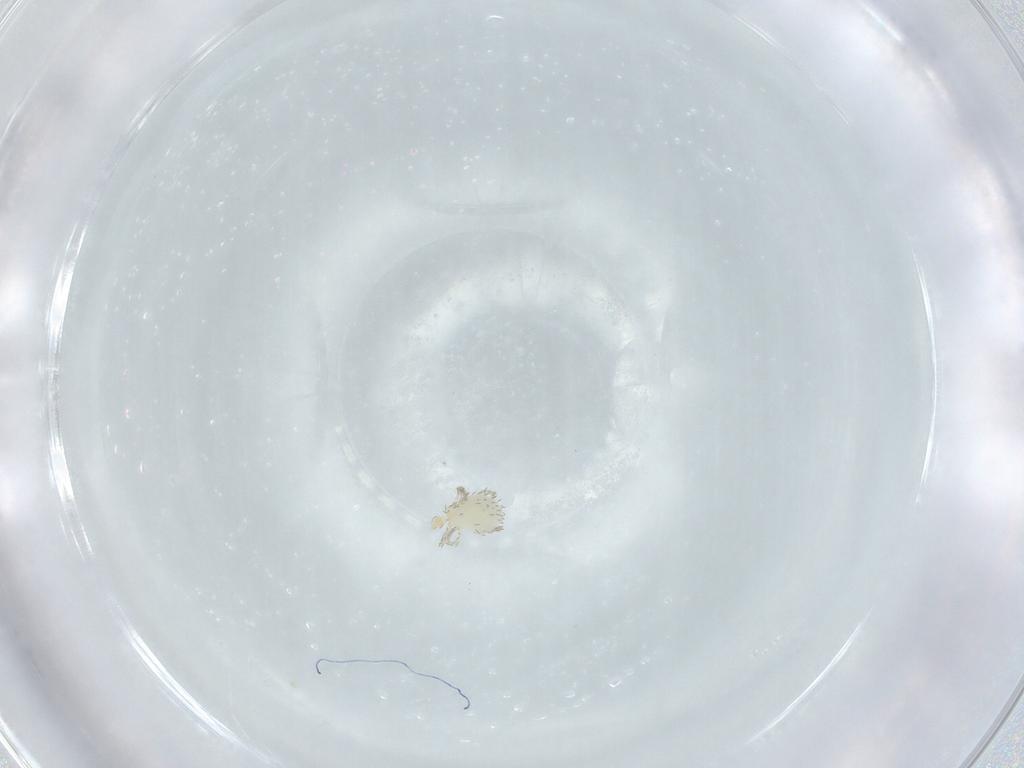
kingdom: Animalia
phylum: Arthropoda
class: Arachnida
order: Trombidiformes
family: Erythraeidae
